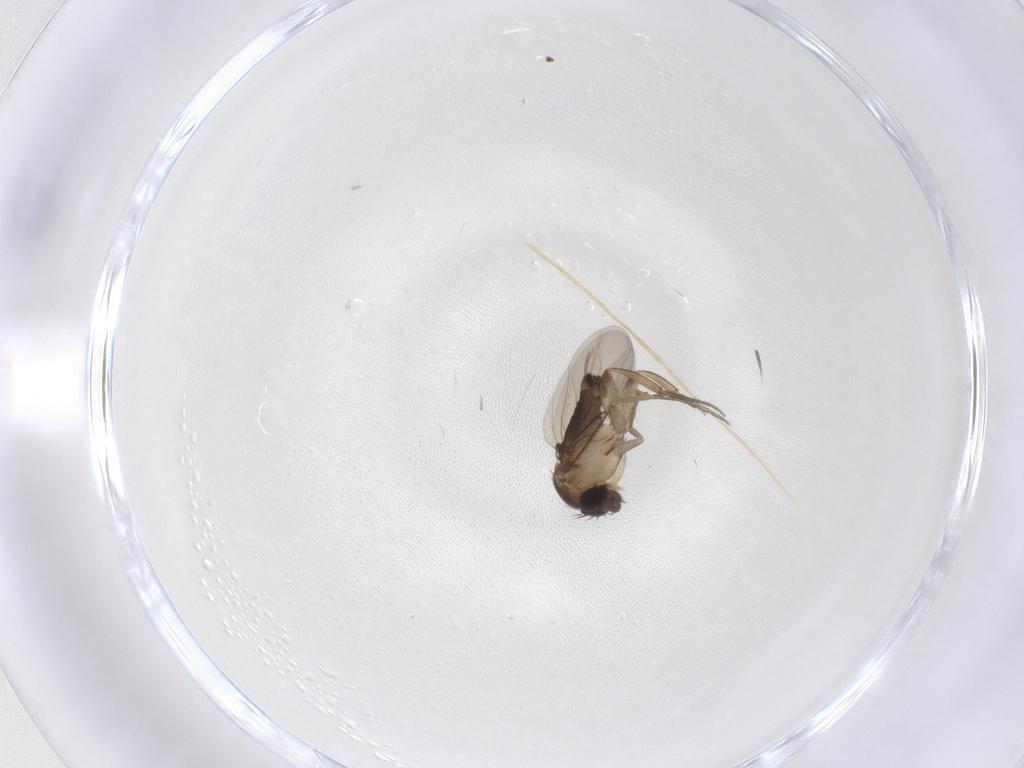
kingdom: Animalia
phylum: Arthropoda
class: Insecta
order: Diptera
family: Phoridae
